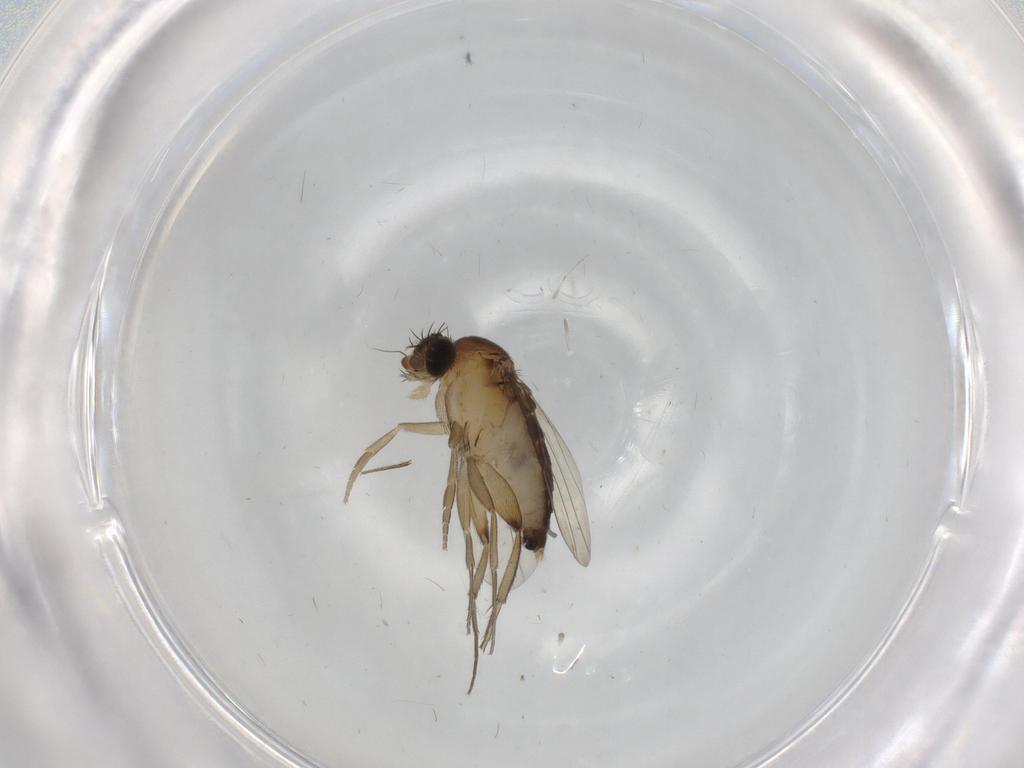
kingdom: Animalia
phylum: Arthropoda
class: Insecta
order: Diptera
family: Phoridae
